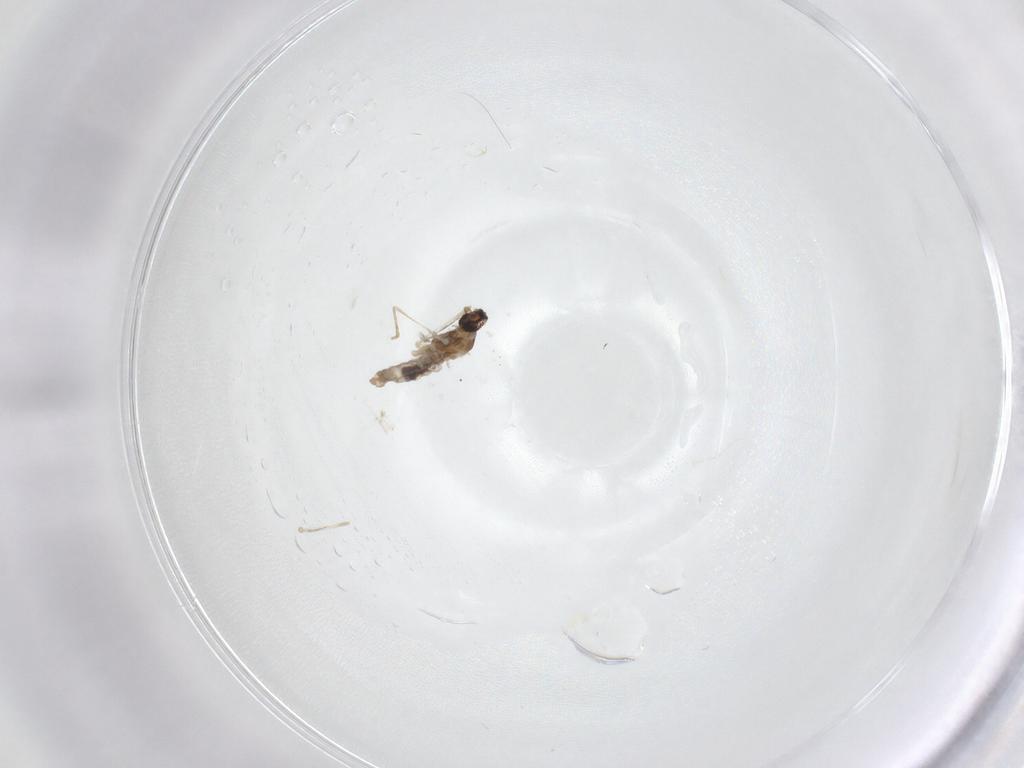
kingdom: Animalia
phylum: Arthropoda
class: Insecta
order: Diptera
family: Cecidomyiidae
